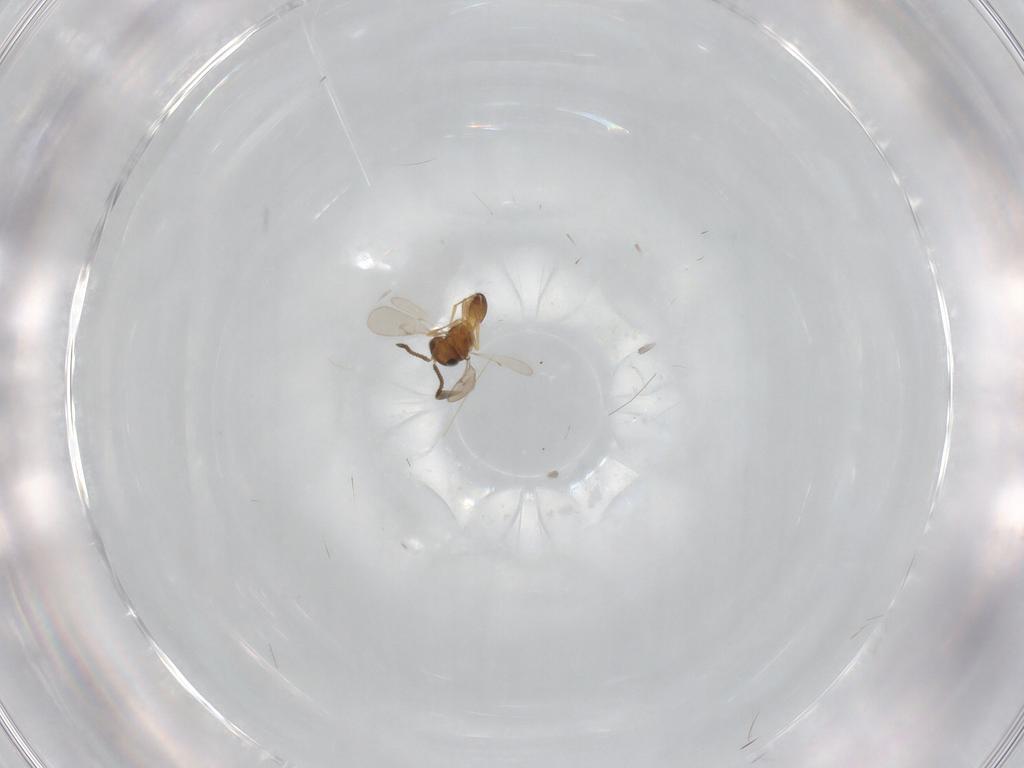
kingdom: Animalia
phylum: Arthropoda
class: Insecta
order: Hymenoptera
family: Scelionidae
